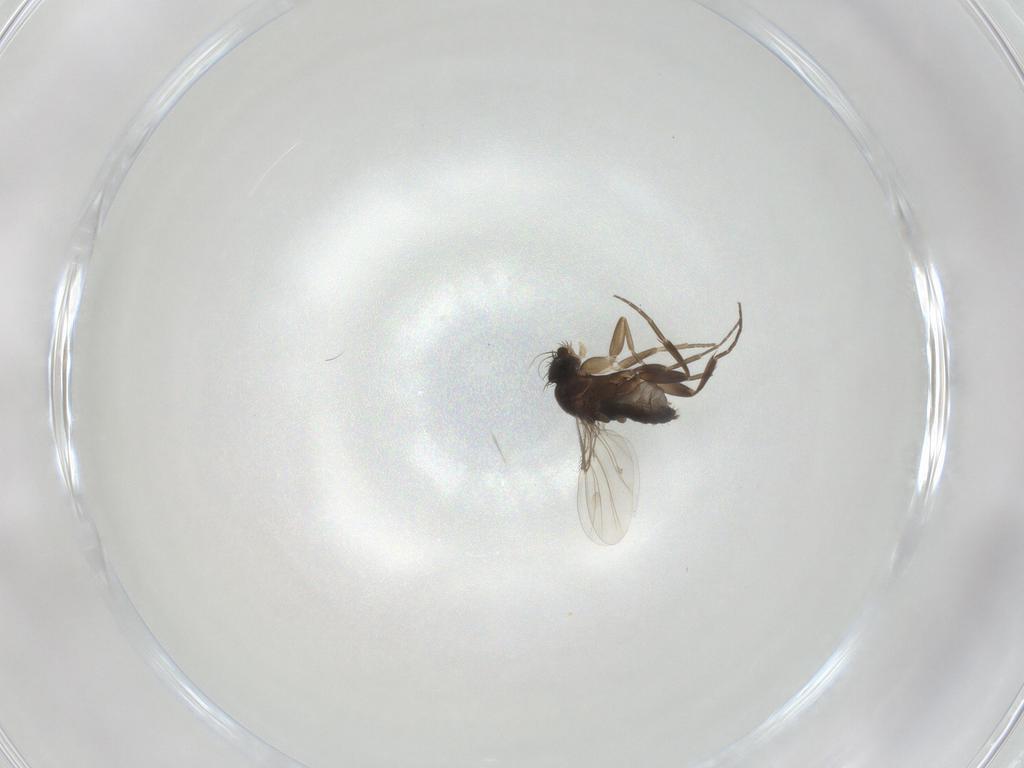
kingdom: Animalia
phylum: Arthropoda
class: Insecta
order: Diptera
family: Phoridae
